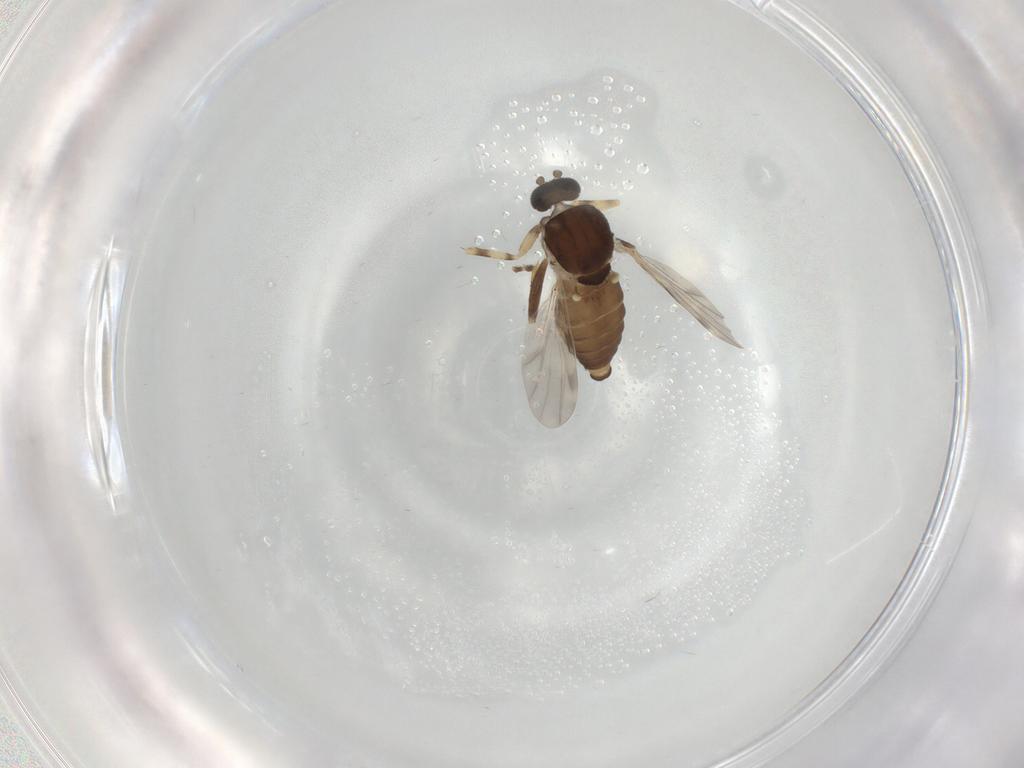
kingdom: Animalia
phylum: Arthropoda
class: Insecta
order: Diptera
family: Ceratopogonidae
